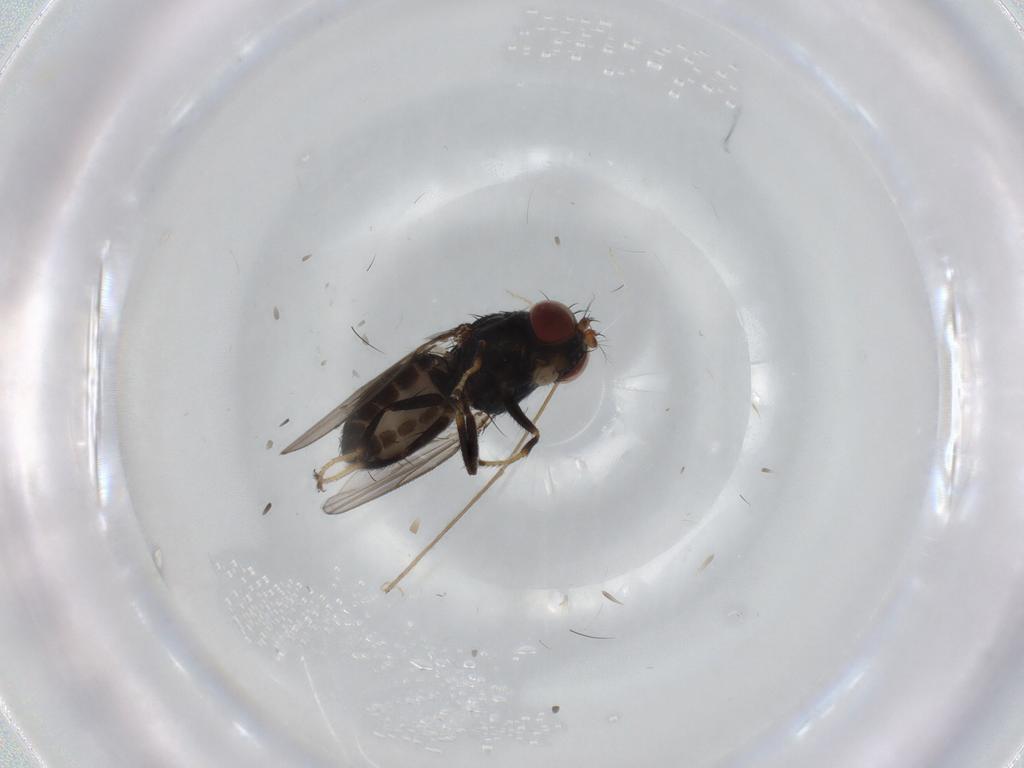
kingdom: Animalia
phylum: Arthropoda
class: Insecta
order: Diptera
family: Ephydridae
